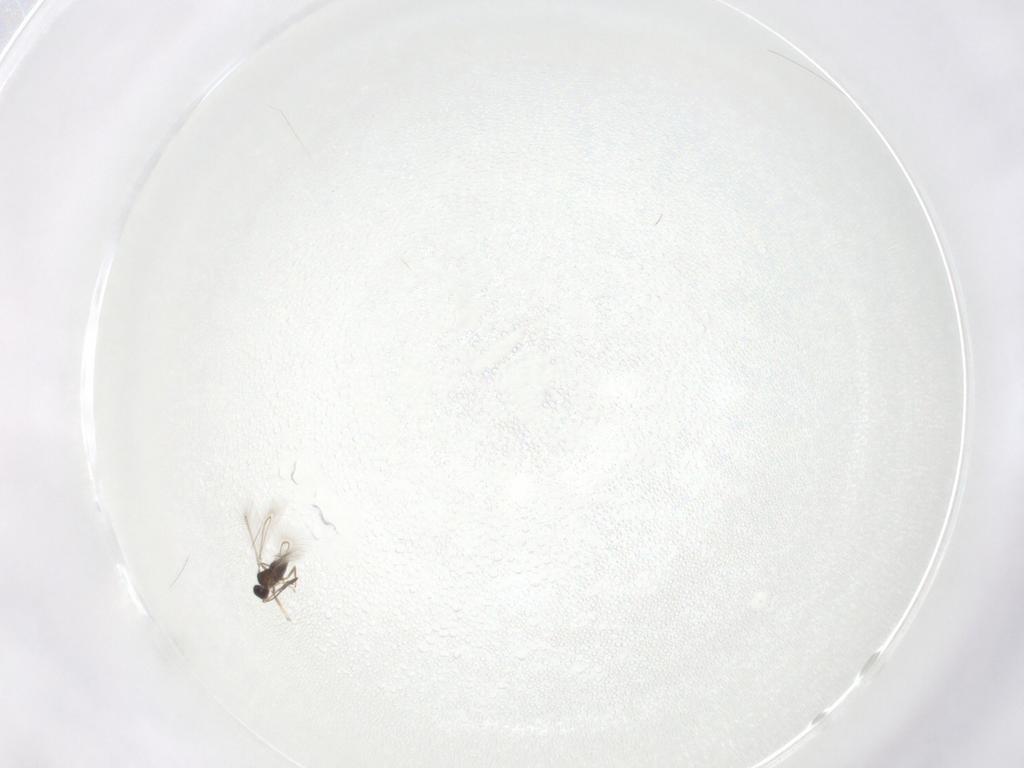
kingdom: Animalia
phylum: Arthropoda
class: Insecta
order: Hymenoptera
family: Mymaridae
